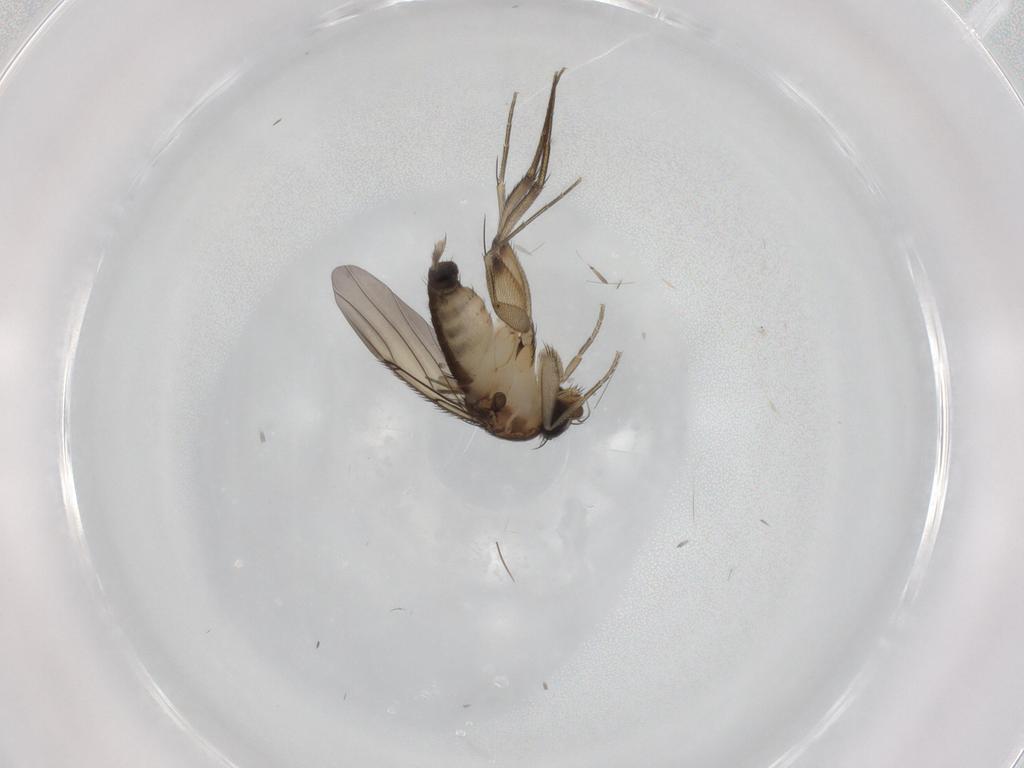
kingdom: Animalia
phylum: Arthropoda
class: Insecta
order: Diptera
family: Phoridae
